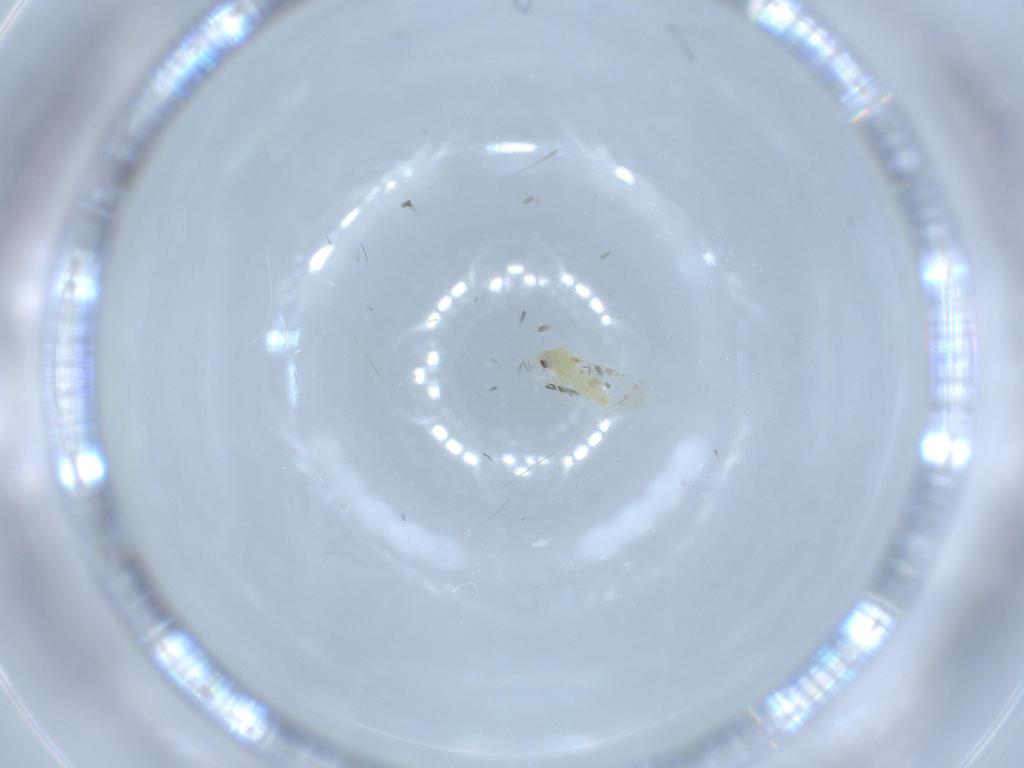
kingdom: Animalia
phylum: Arthropoda
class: Insecta
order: Hemiptera
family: Aleyrodidae
